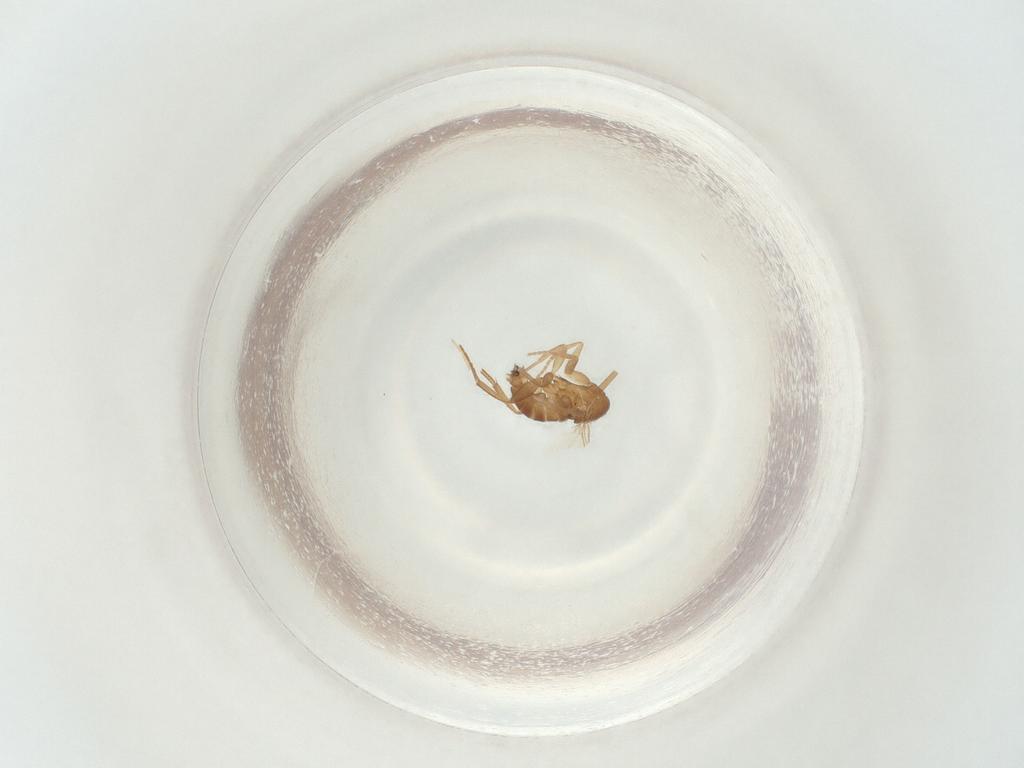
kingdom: Animalia
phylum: Arthropoda
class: Insecta
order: Diptera
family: Phoridae
